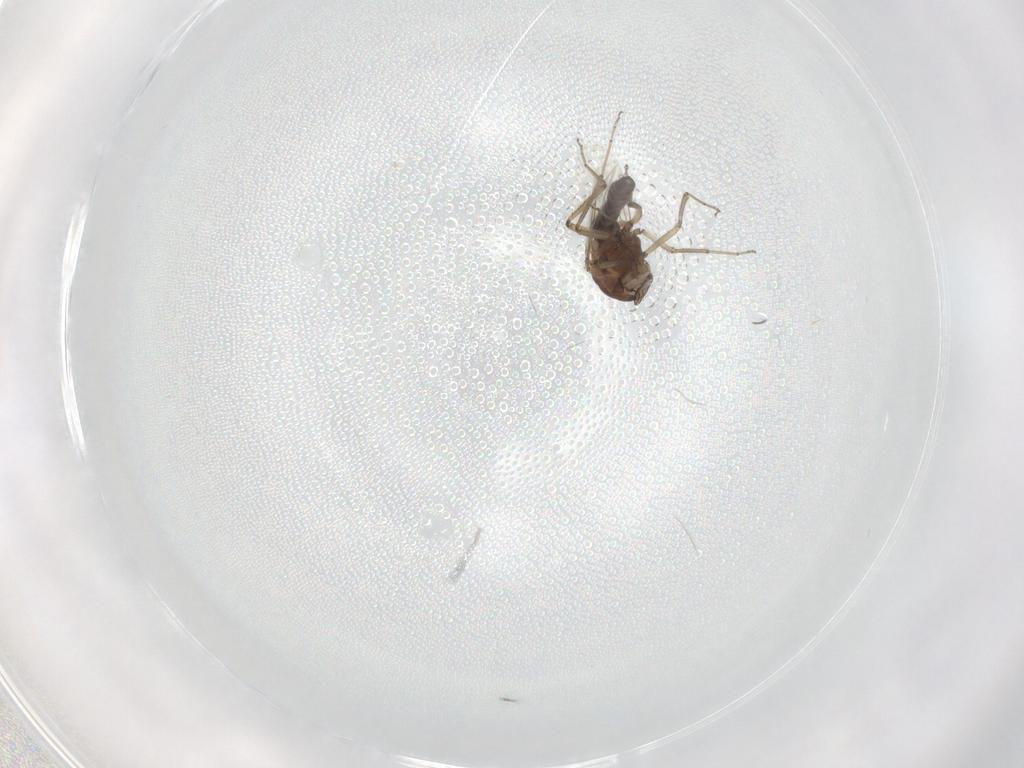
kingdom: Animalia
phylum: Arthropoda
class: Insecta
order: Diptera
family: Ceratopogonidae
